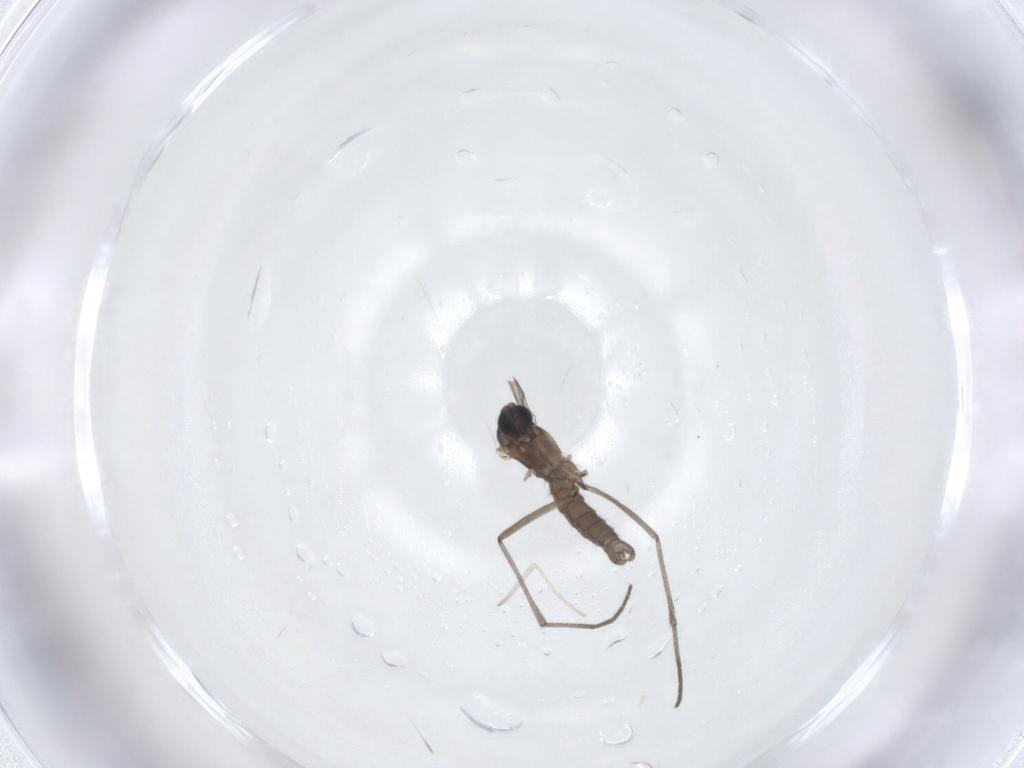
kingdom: Animalia
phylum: Arthropoda
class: Insecta
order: Diptera
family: Sciaridae
